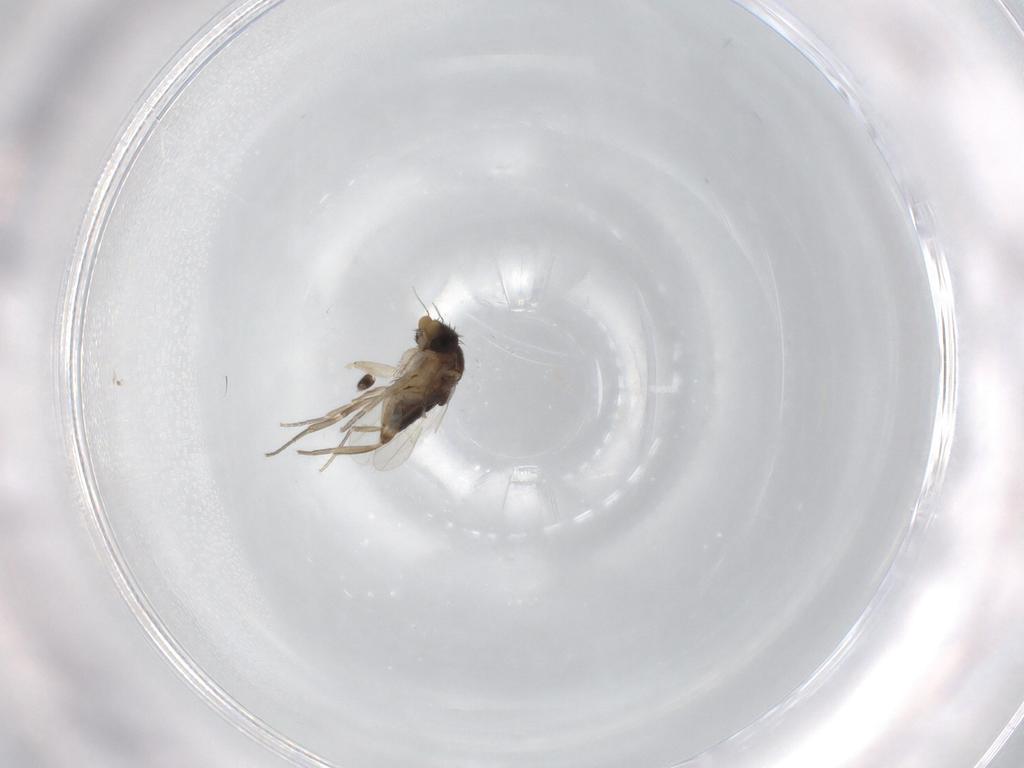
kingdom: Animalia
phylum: Arthropoda
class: Insecta
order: Diptera
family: Phoridae
